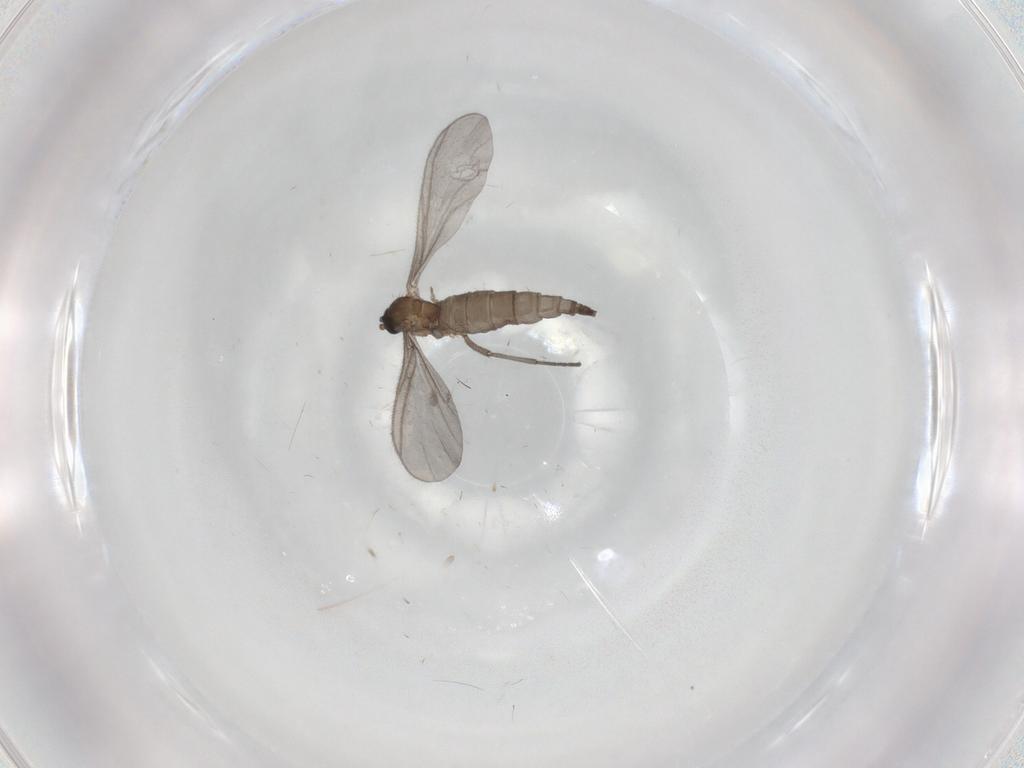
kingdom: Animalia
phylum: Arthropoda
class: Insecta
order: Diptera
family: Sciaridae
